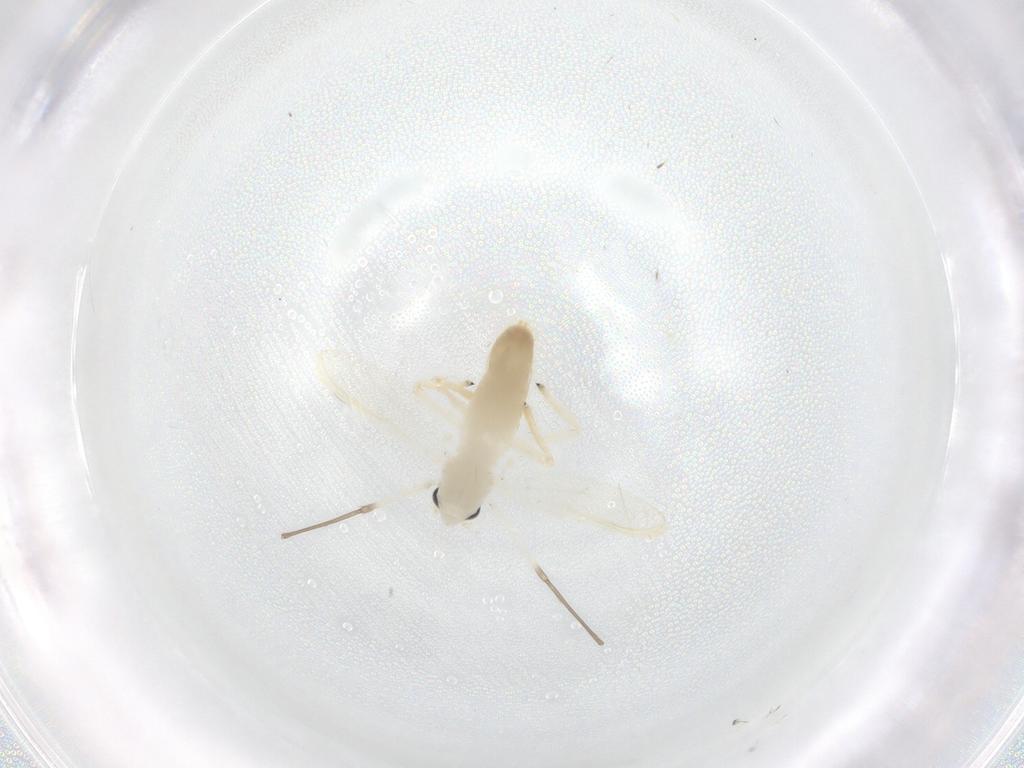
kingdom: Animalia
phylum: Arthropoda
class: Insecta
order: Diptera
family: Chironomidae
